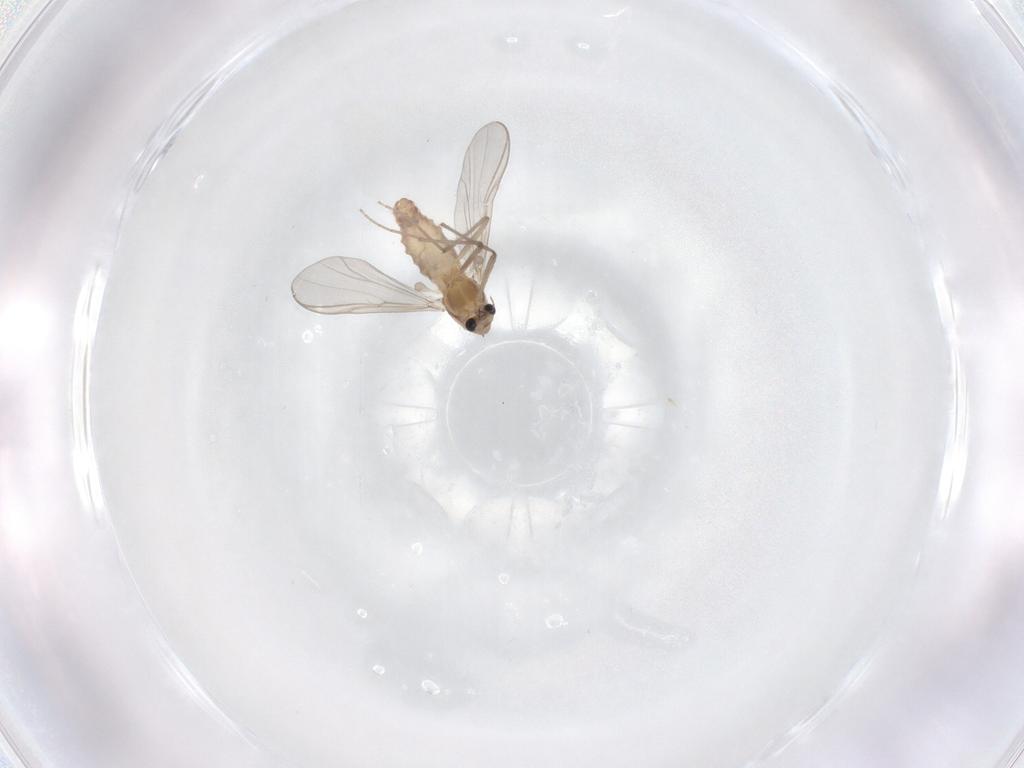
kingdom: Animalia
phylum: Arthropoda
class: Insecta
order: Diptera
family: Chironomidae
